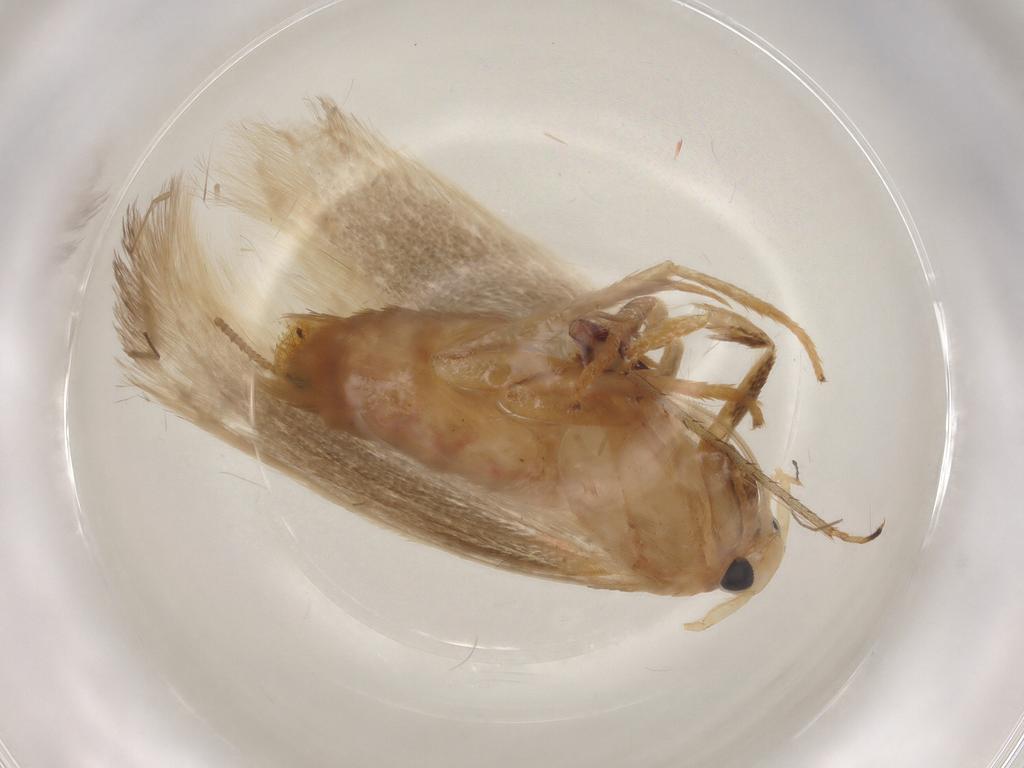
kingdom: Animalia
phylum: Arthropoda
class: Insecta
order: Lepidoptera
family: Geometridae
